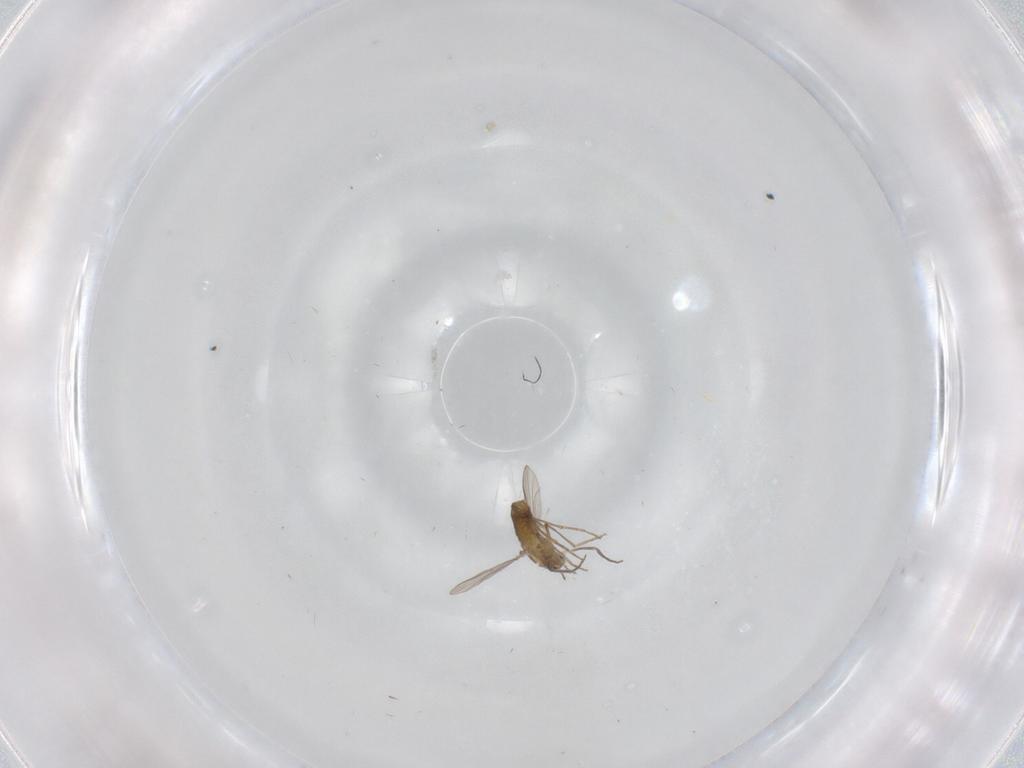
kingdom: Animalia
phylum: Arthropoda
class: Insecta
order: Diptera
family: Chironomidae
